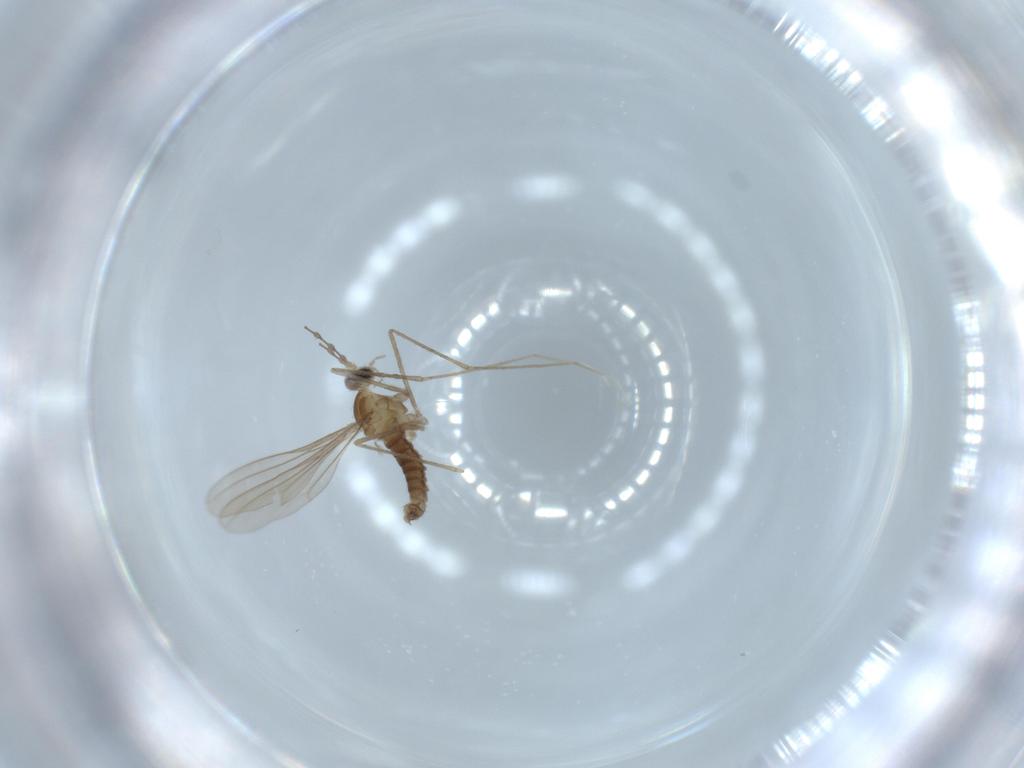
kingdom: Animalia
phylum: Arthropoda
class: Insecta
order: Diptera
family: Cecidomyiidae
